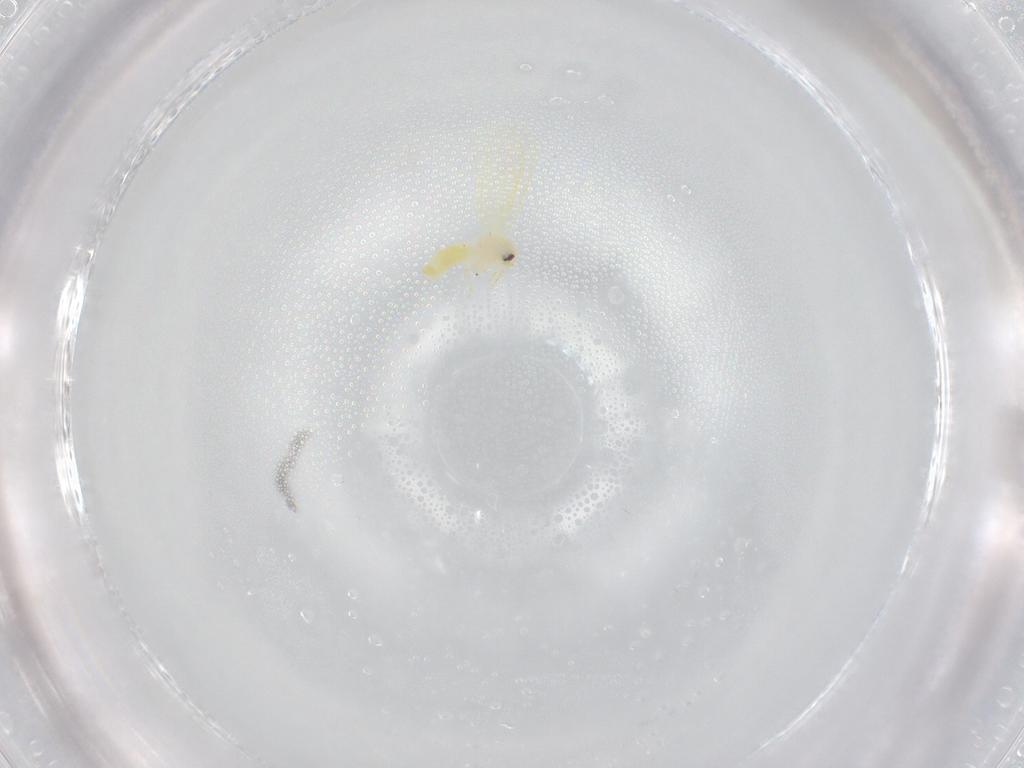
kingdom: Animalia
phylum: Arthropoda
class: Insecta
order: Hemiptera
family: Coccoidea_incertae_sedis
